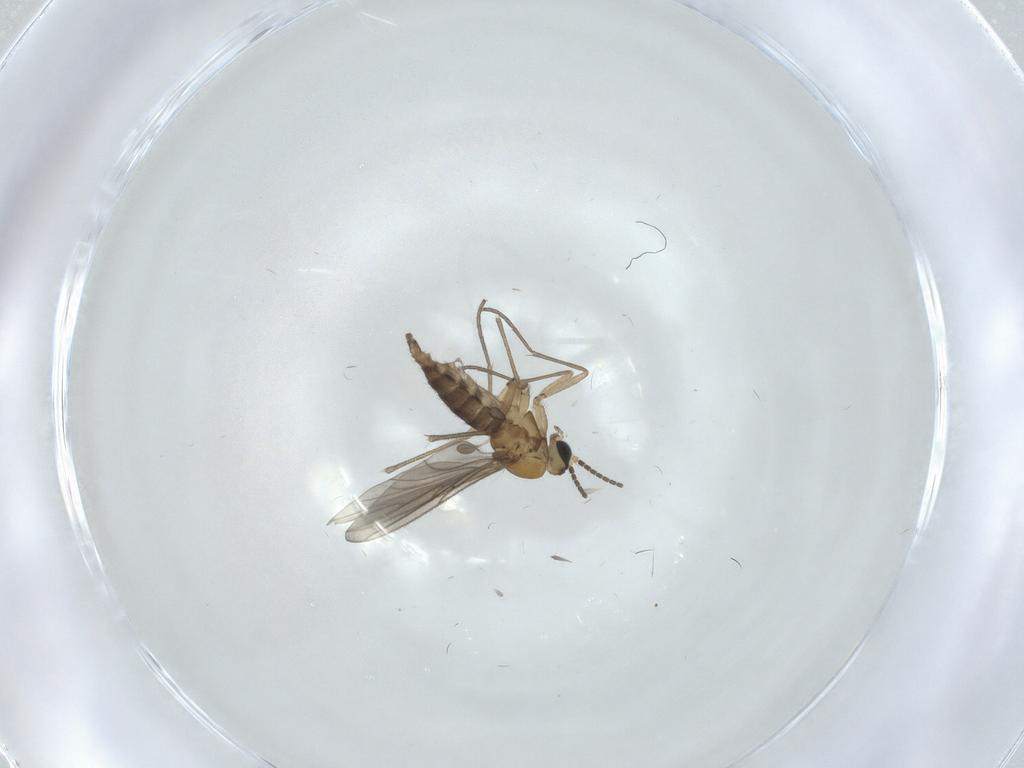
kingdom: Animalia
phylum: Arthropoda
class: Insecta
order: Diptera
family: Sciaridae
